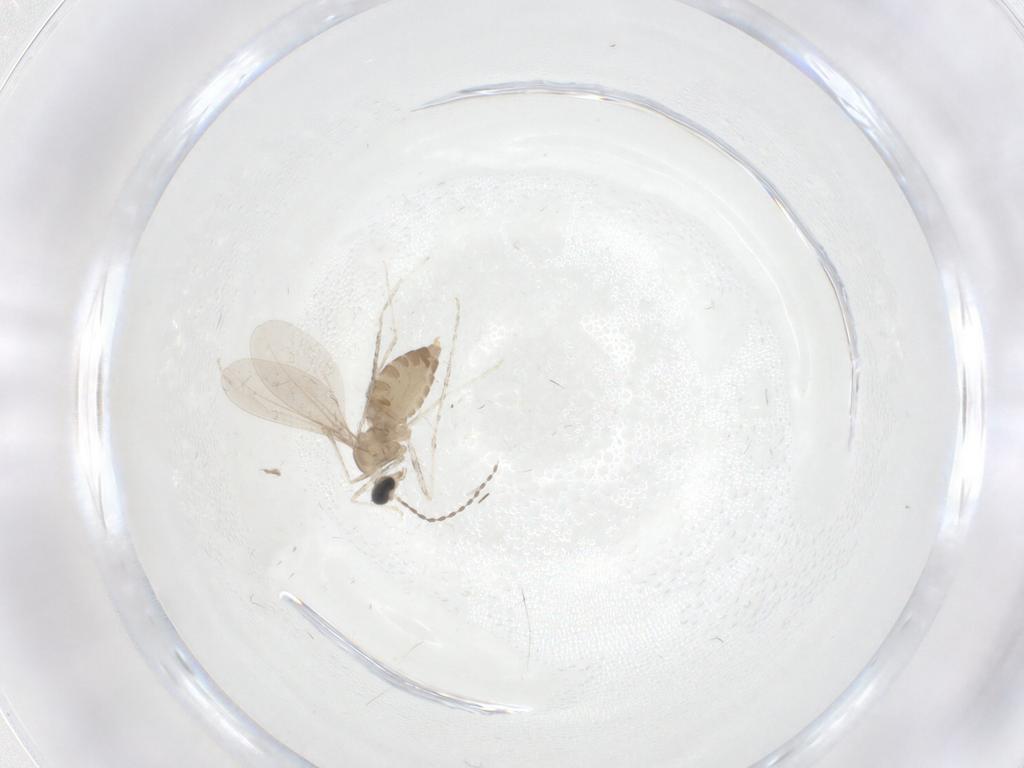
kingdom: Animalia
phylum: Arthropoda
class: Insecta
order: Diptera
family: Cecidomyiidae
